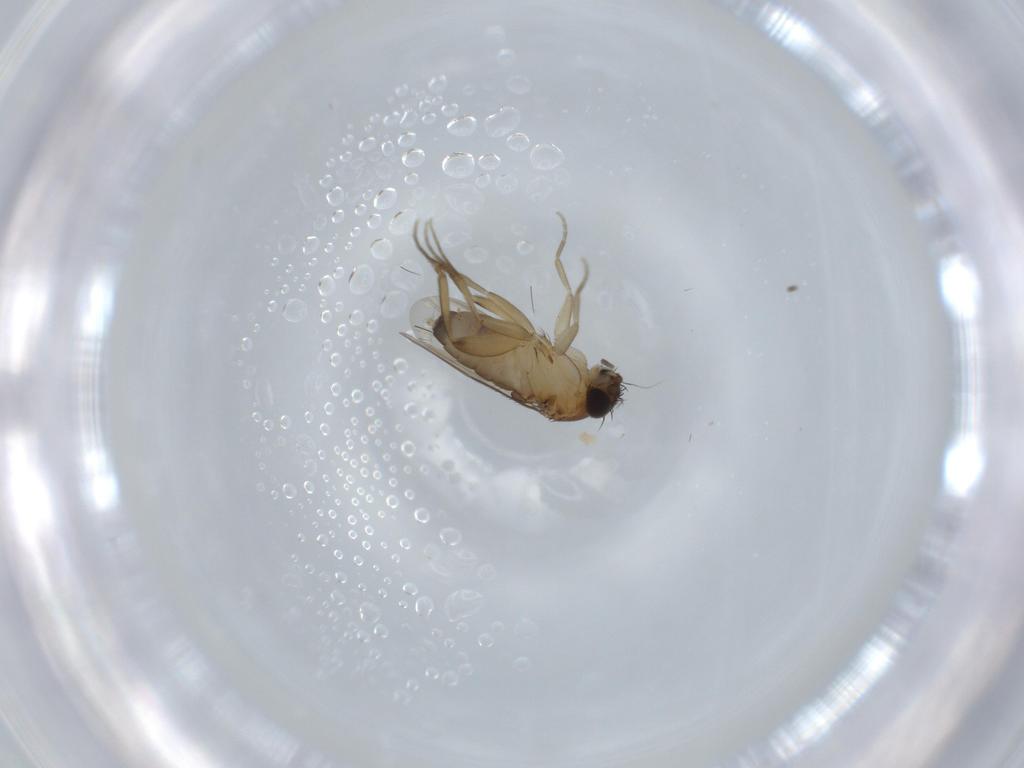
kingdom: Animalia
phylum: Arthropoda
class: Insecta
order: Diptera
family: Phoridae
